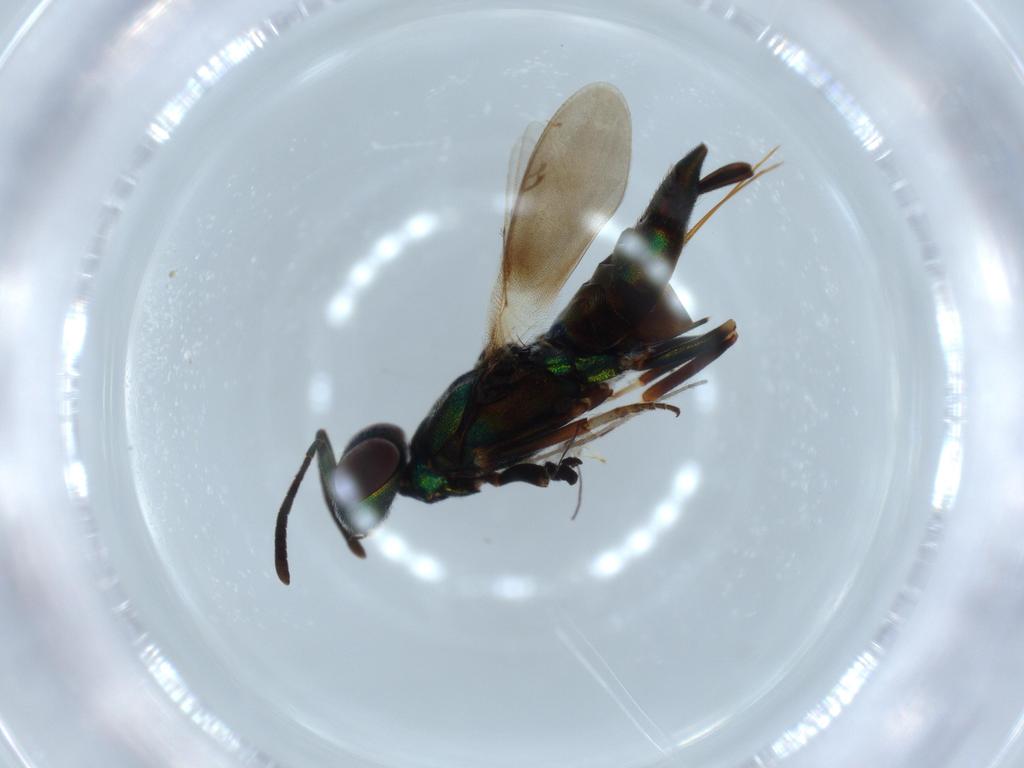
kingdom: Animalia
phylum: Arthropoda
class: Insecta
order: Hymenoptera
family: Eupelmidae
